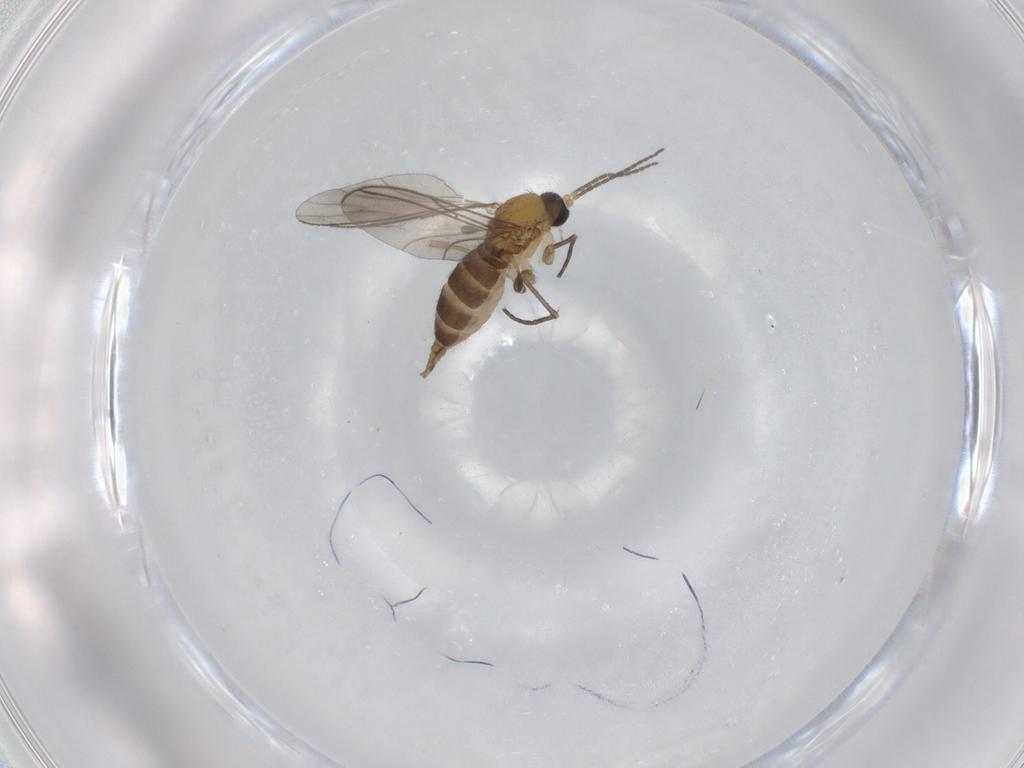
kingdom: Animalia
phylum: Arthropoda
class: Insecta
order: Diptera
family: Sciaridae
